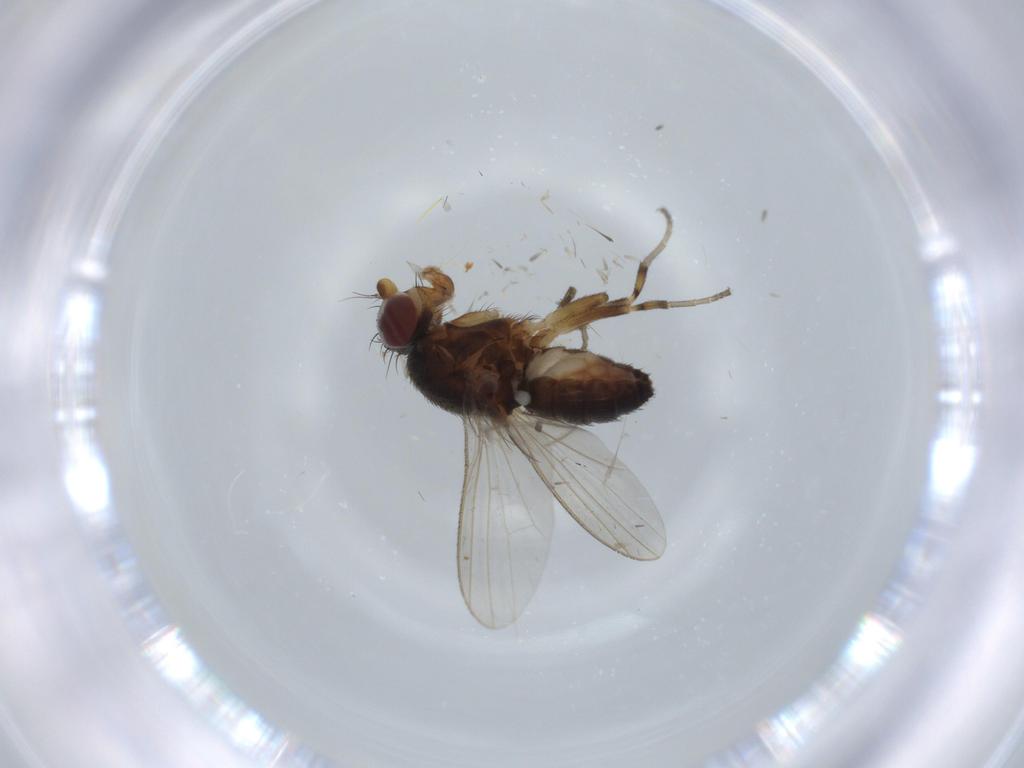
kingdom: Animalia
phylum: Arthropoda
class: Insecta
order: Diptera
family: Heleomyzidae
